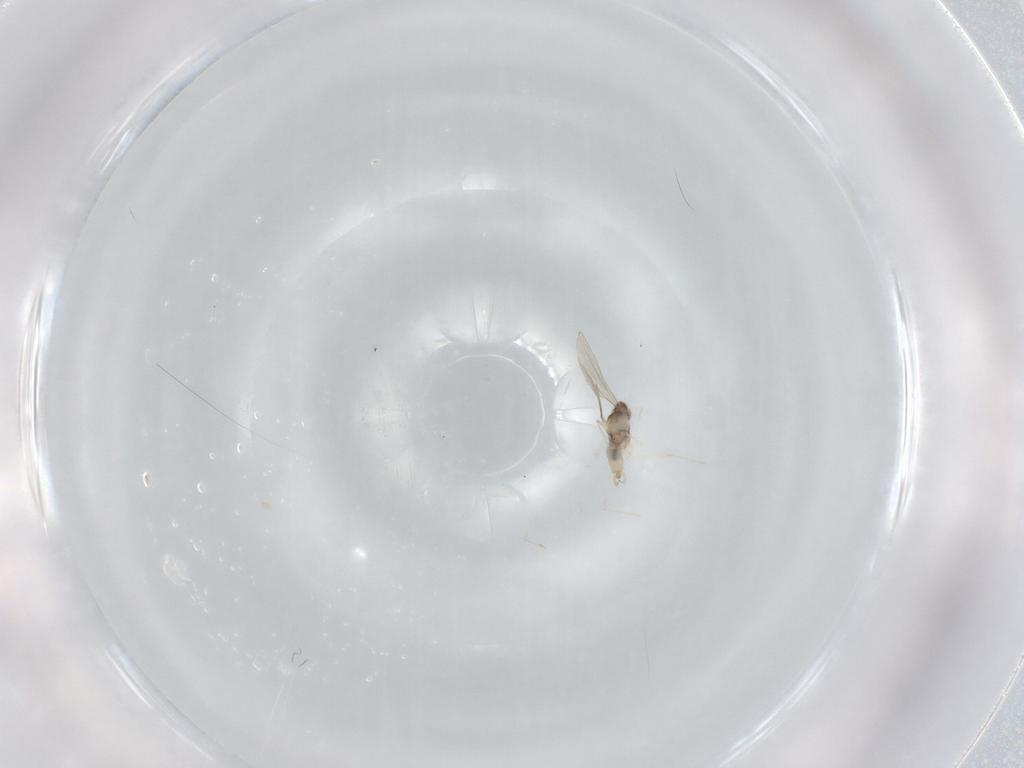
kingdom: Animalia
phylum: Arthropoda
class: Insecta
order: Diptera
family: Cecidomyiidae
